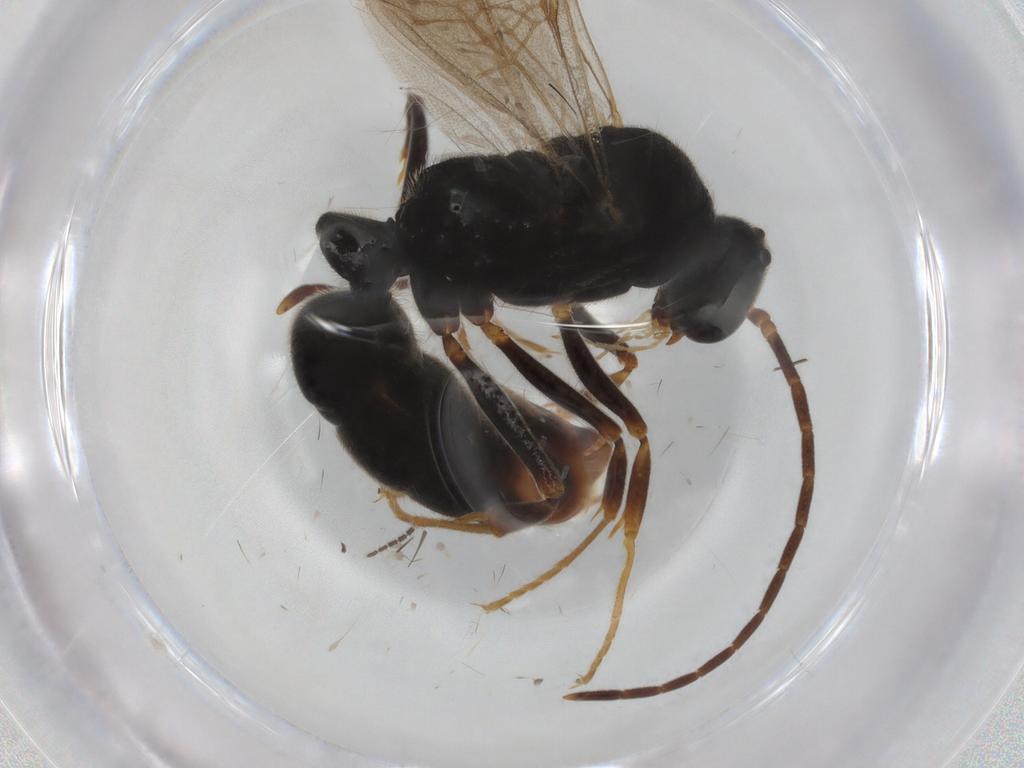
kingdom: Animalia
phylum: Arthropoda
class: Insecta
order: Hymenoptera
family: Formicidae
